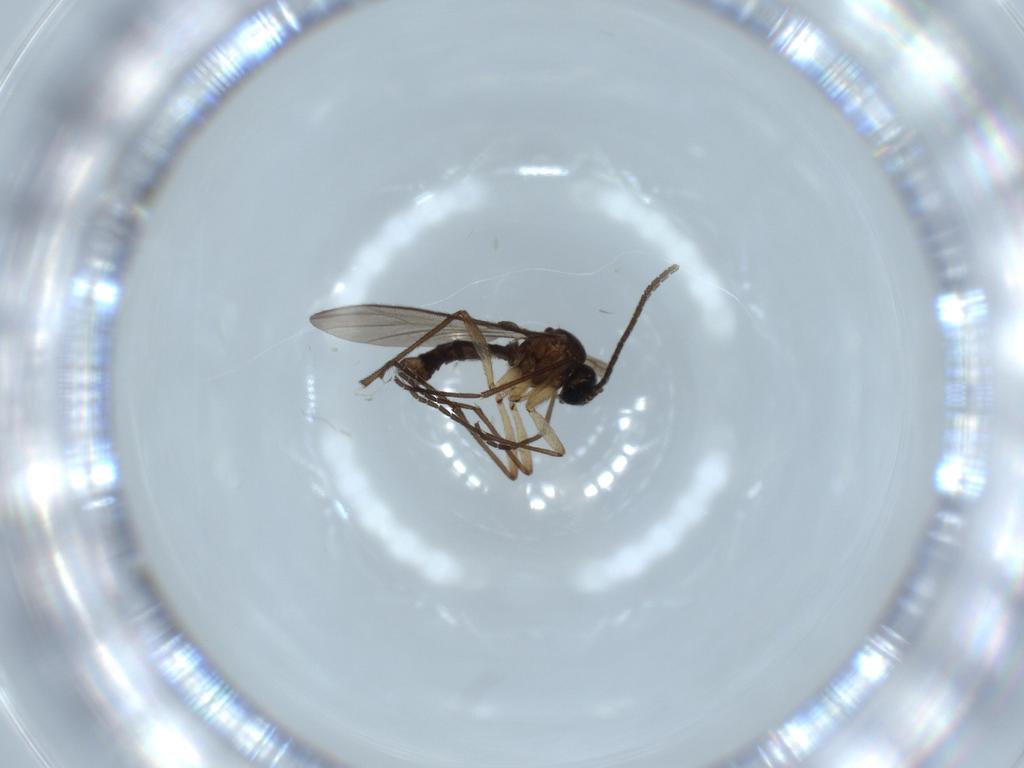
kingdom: Animalia
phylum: Arthropoda
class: Insecta
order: Diptera
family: Sciaridae
